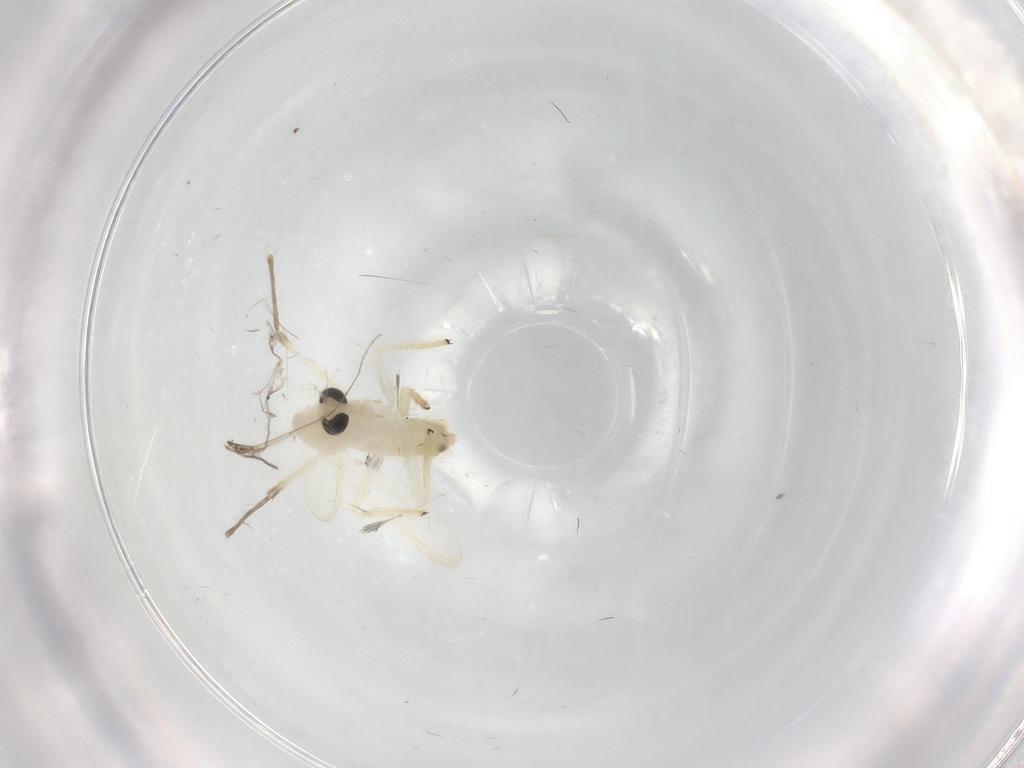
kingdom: Animalia
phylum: Arthropoda
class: Insecta
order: Diptera
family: Chironomidae
